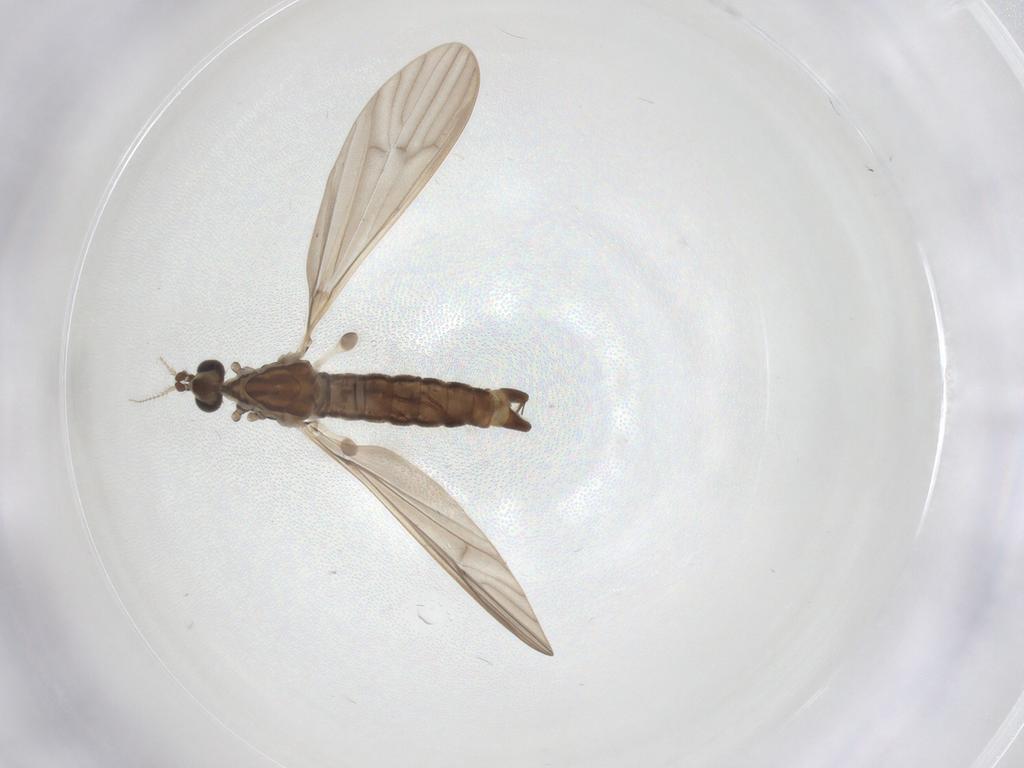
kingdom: Animalia
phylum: Arthropoda
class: Insecta
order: Diptera
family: Limoniidae
